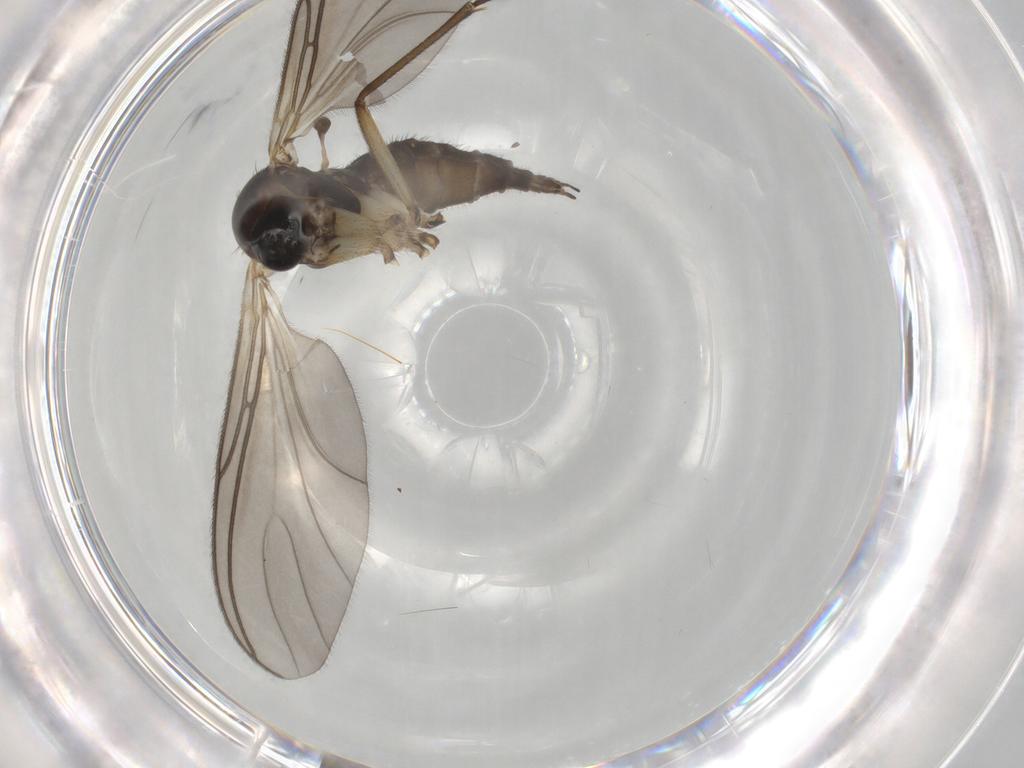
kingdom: Animalia
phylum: Arthropoda
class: Insecta
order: Diptera
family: Sciaridae
